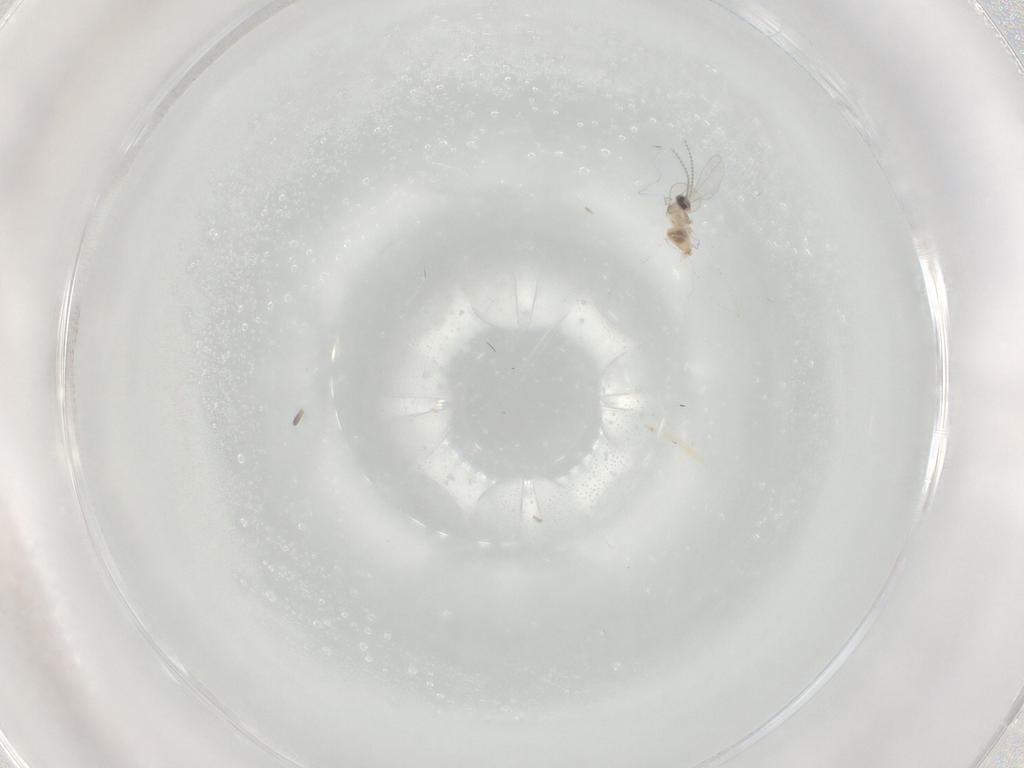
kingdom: Animalia
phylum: Arthropoda
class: Insecta
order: Diptera
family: Cecidomyiidae
